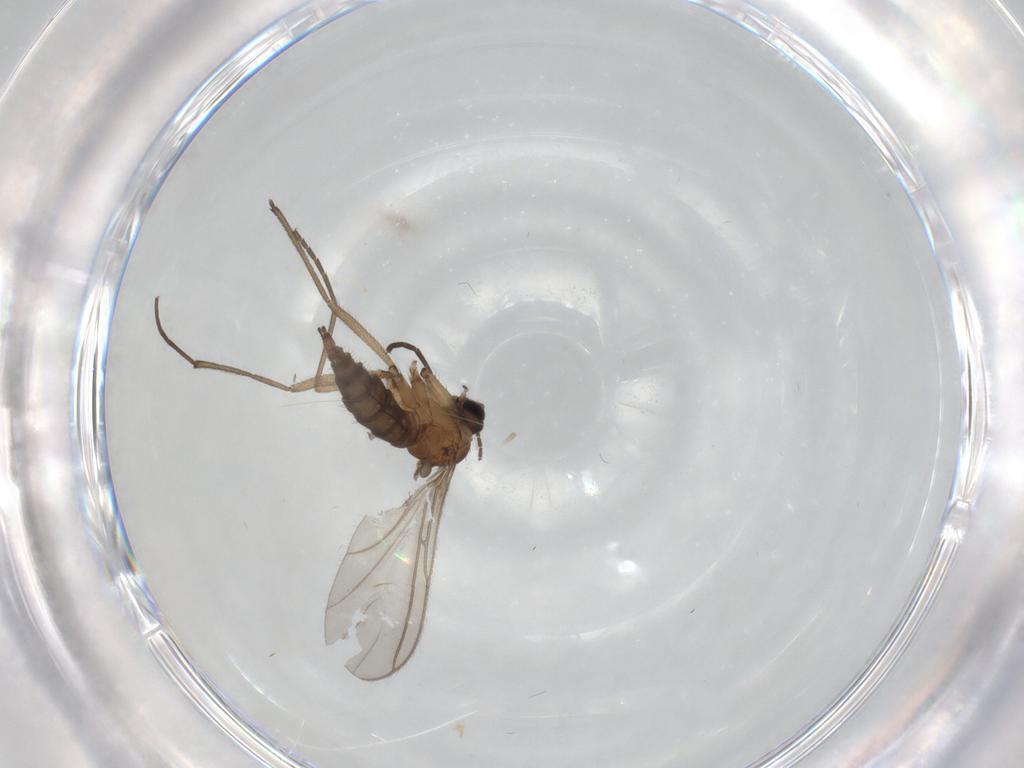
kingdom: Animalia
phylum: Arthropoda
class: Insecta
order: Diptera
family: Sciaridae
